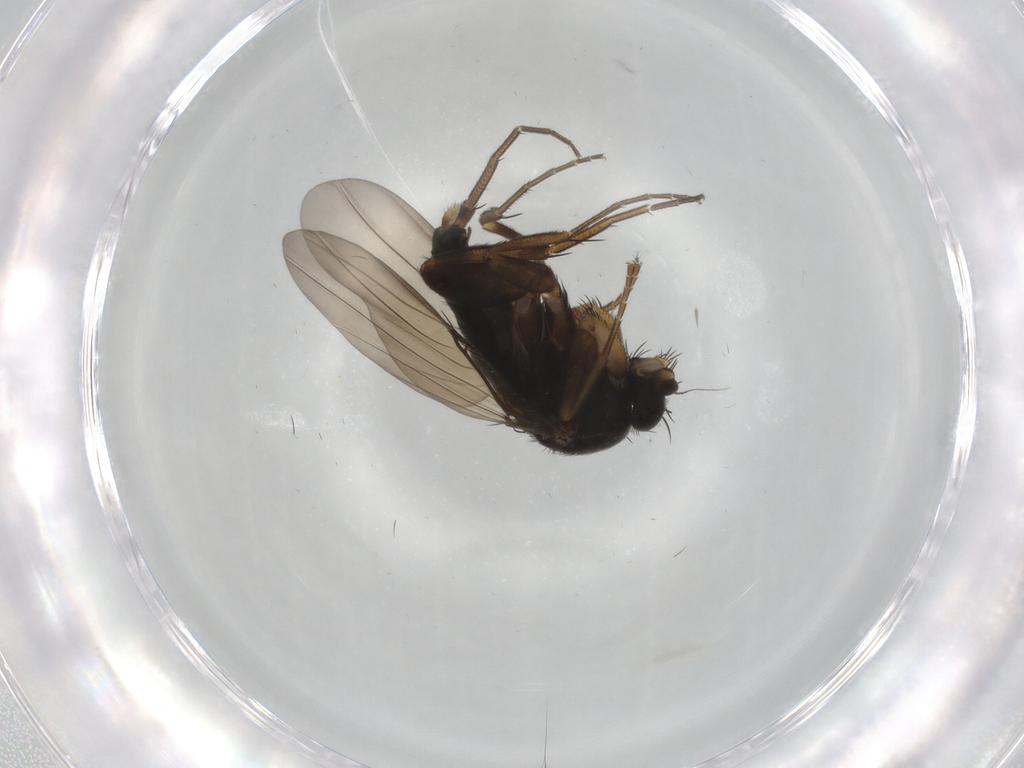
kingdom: Animalia
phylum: Arthropoda
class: Insecta
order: Diptera
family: Phoridae
